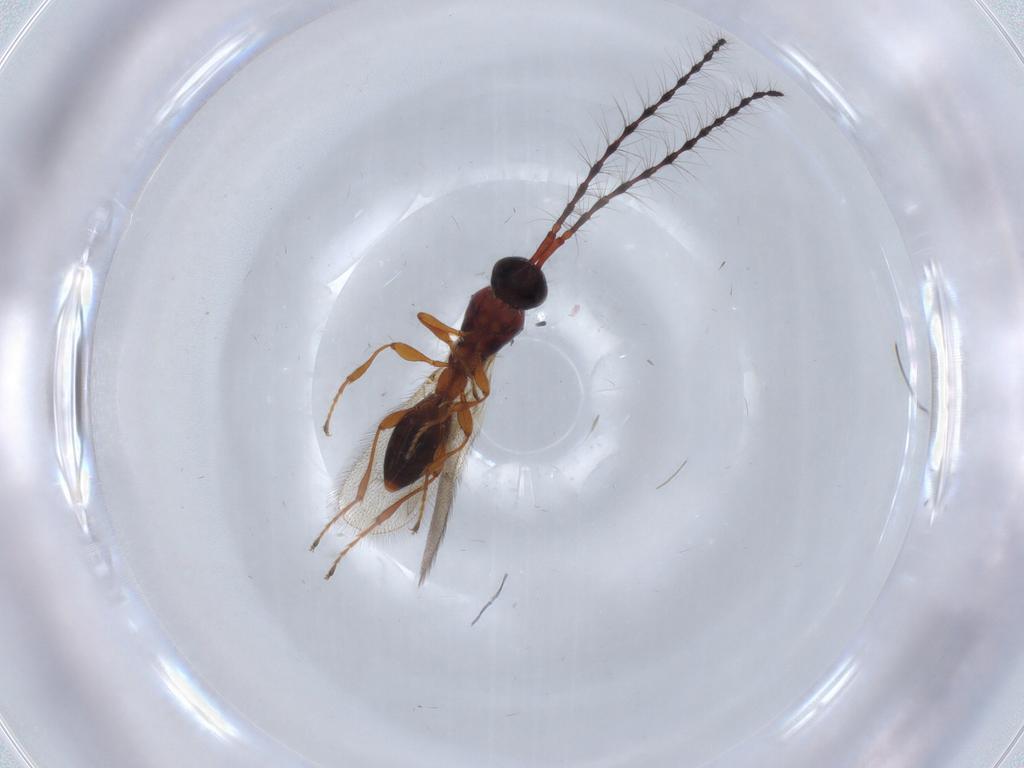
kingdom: Animalia
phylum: Arthropoda
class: Insecta
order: Hymenoptera
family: Diapriidae
